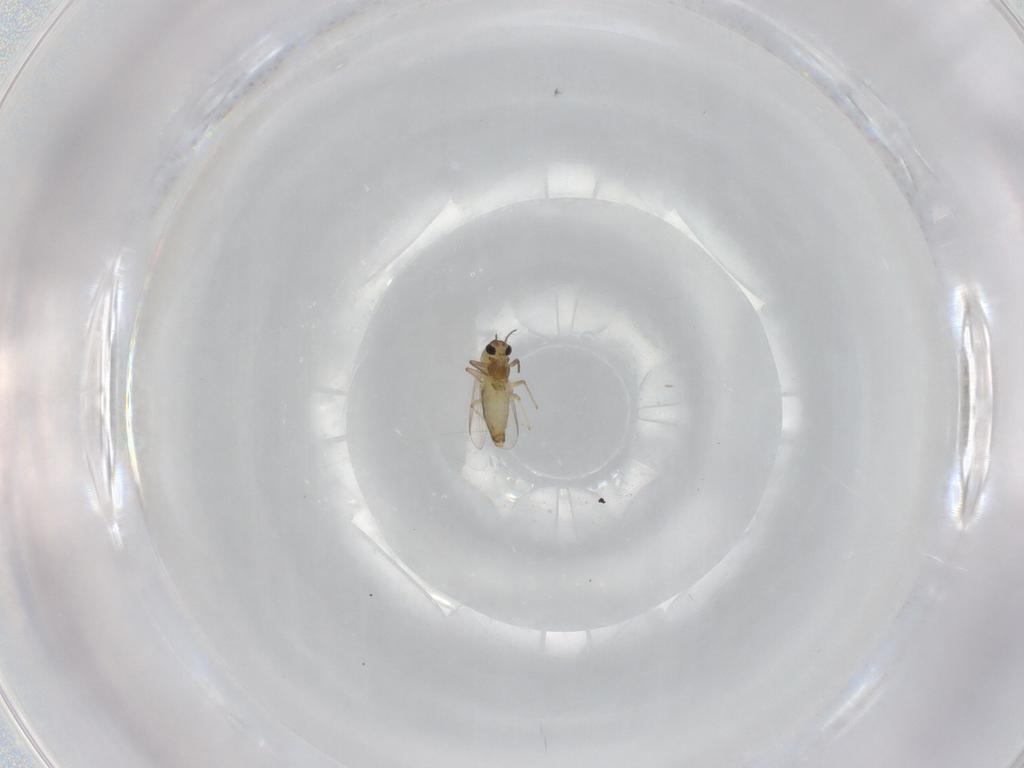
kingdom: Animalia
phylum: Arthropoda
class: Insecta
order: Diptera
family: Chironomidae
